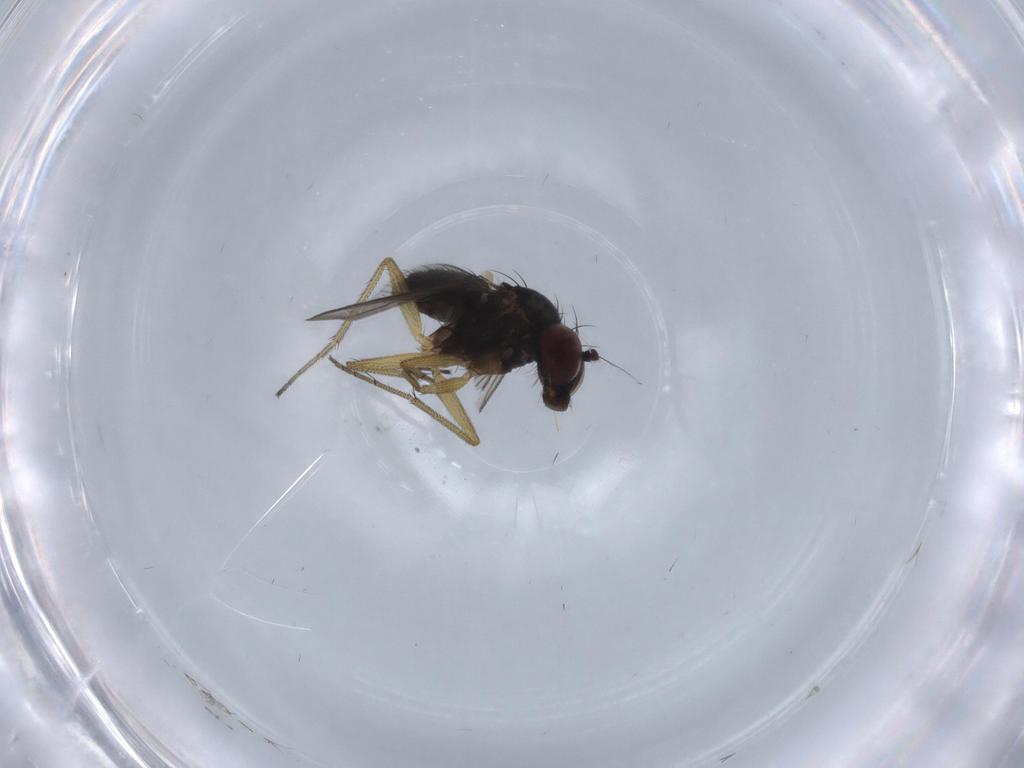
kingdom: Animalia
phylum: Arthropoda
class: Insecta
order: Diptera
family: Dolichopodidae
